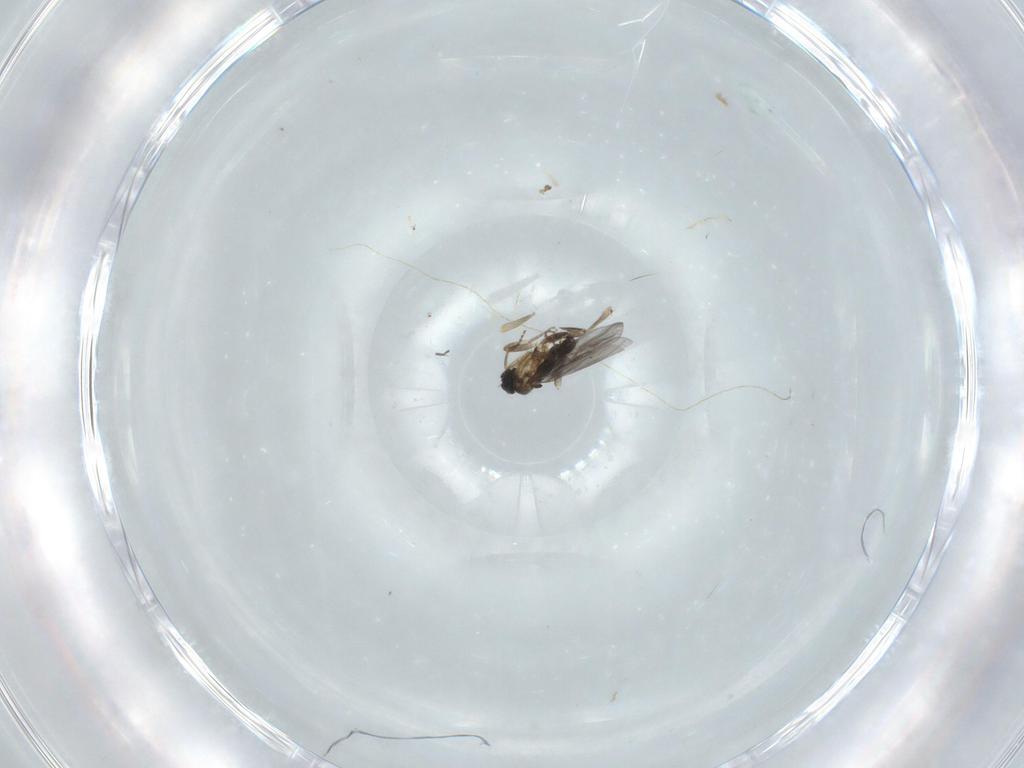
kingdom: Animalia
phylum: Arthropoda
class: Insecta
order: Diptera
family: Chironomidae
